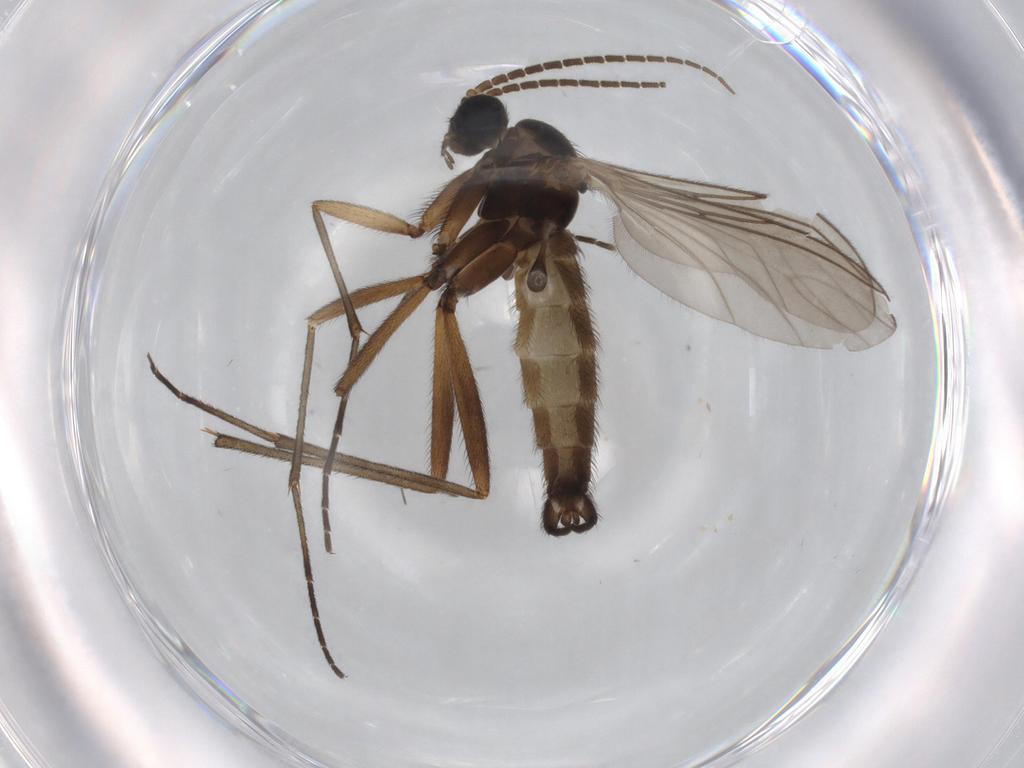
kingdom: Animalia
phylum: Arthropoda
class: Insecta
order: Diptera
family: Sciaridae
